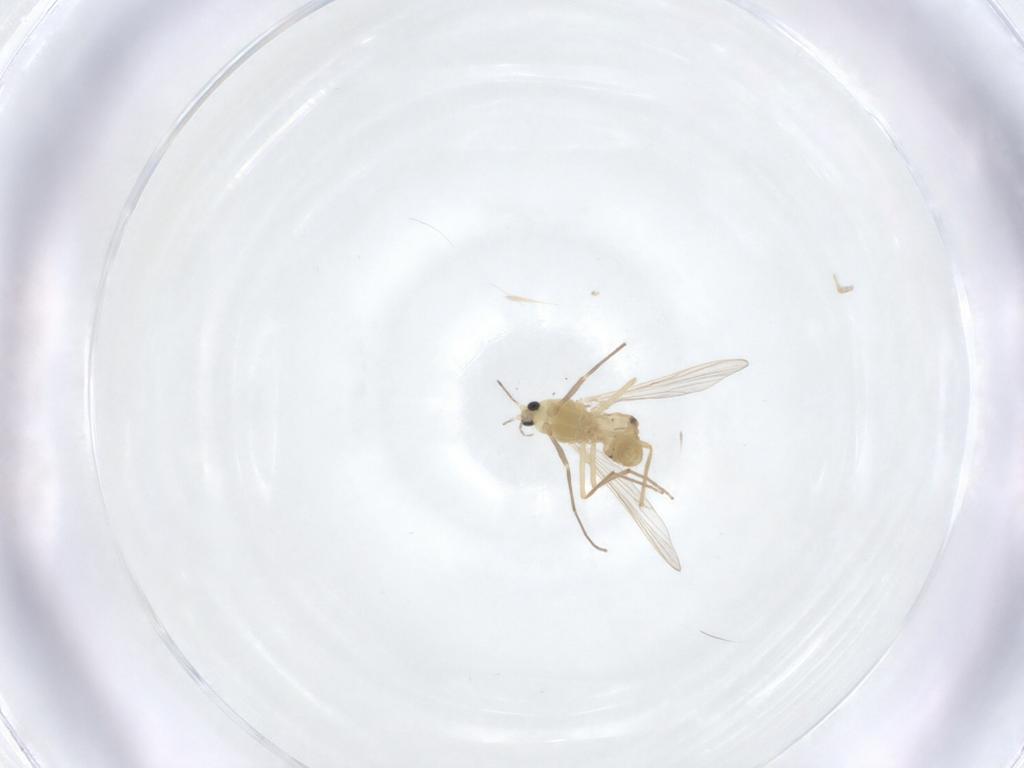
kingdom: Animalia
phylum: Arthropoda
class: Insecta
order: Diptera
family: Chironomidae
